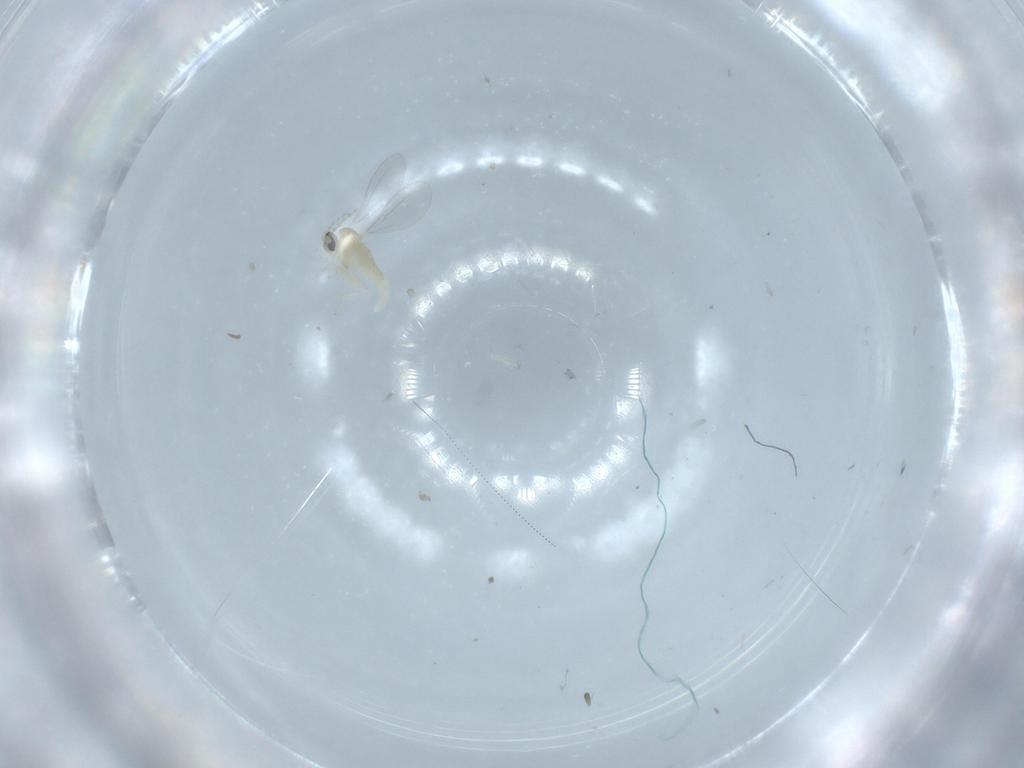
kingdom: Animalia
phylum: Arthropoda
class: Insecta
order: Diptera
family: Cecidomyiidae
